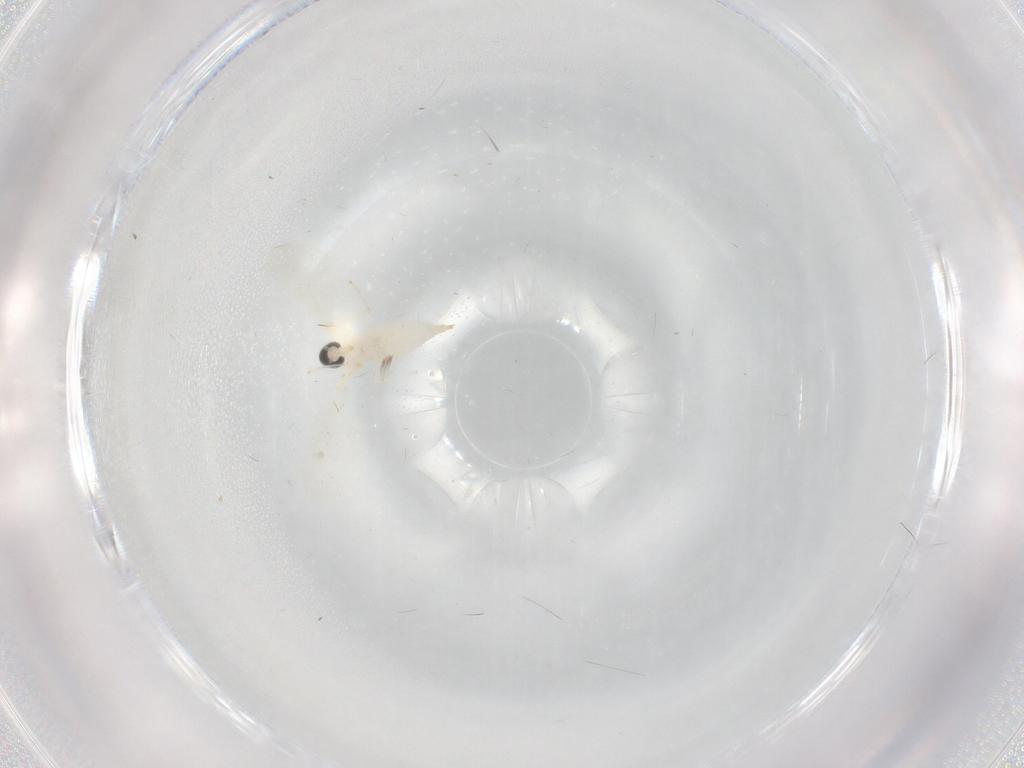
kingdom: Animalia
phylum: Arthropoda
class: Insecta
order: Diptera
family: Cecidomyiidae
